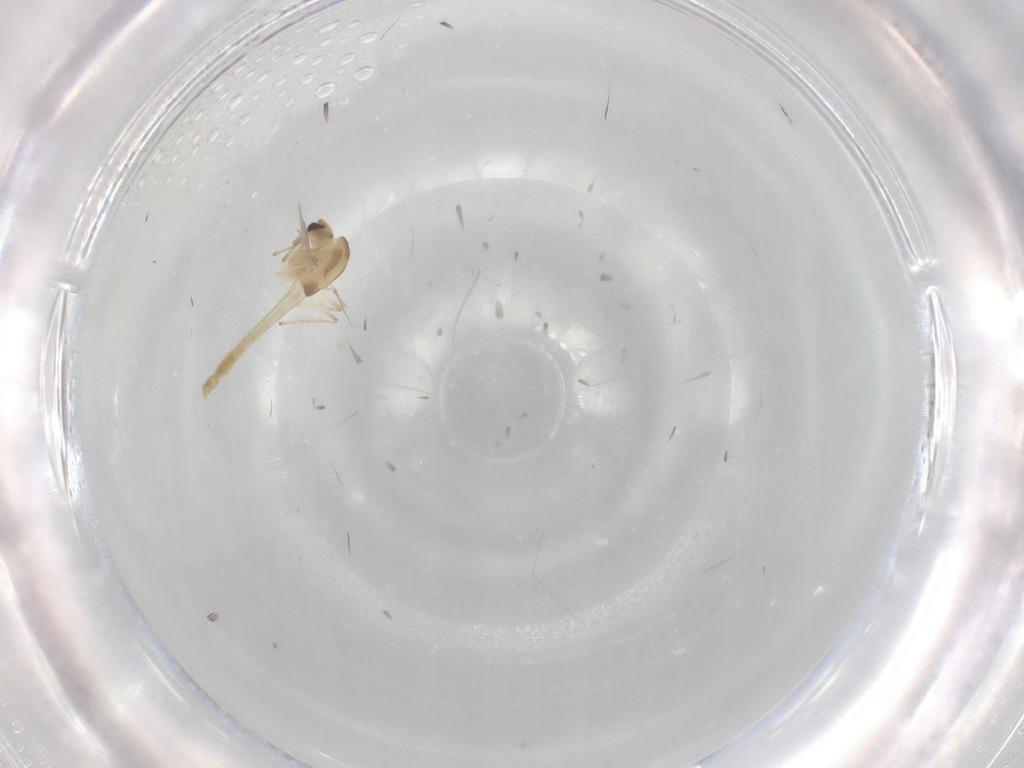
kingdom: Animalia
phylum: Arthropoda
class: Insecta
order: Diptera
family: Chironomidae
